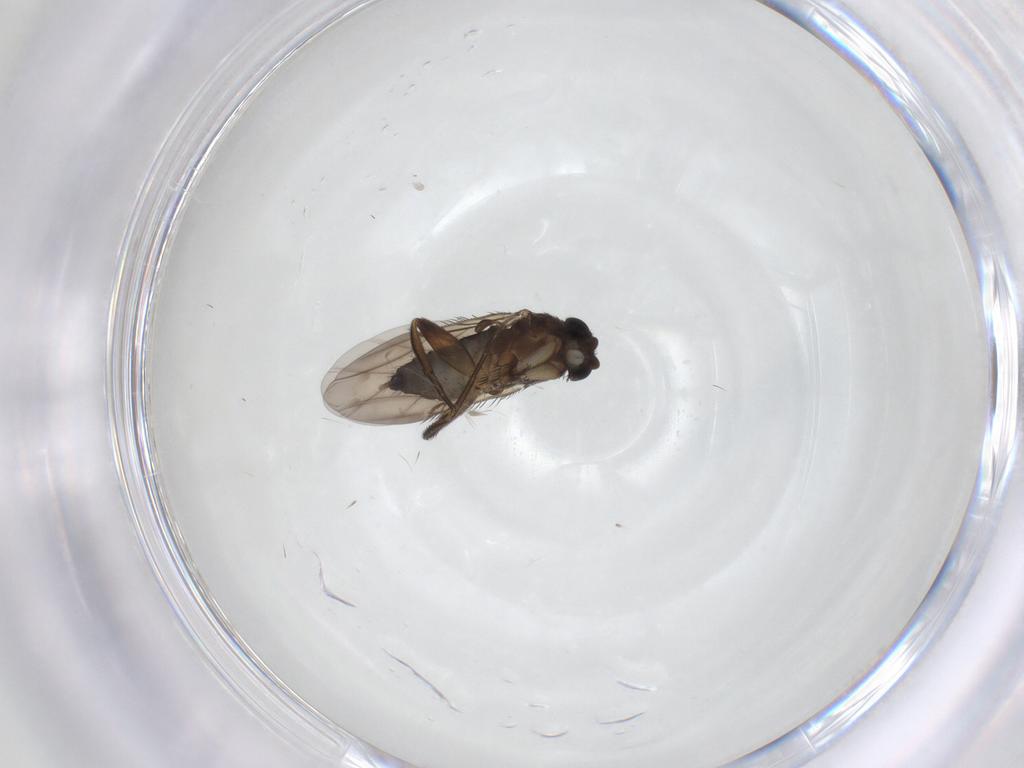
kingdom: Animalia
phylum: Arthropoda
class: Insecta
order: Diptera
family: Phoridae
